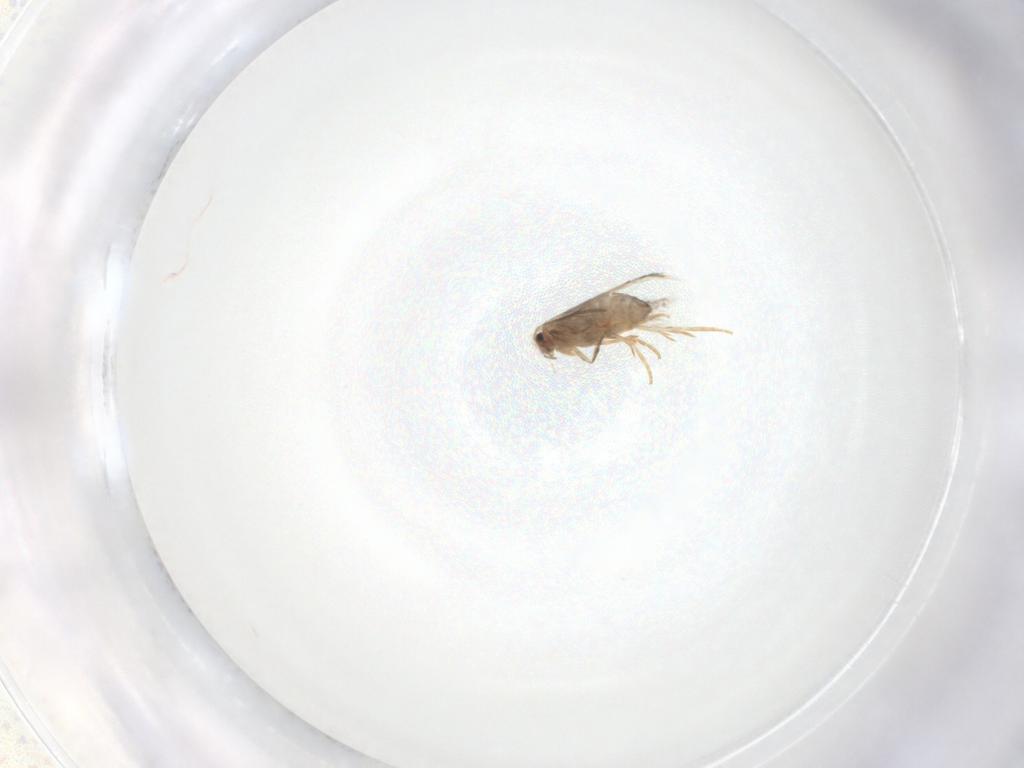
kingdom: Animalia
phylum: Arthropoda
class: Insecta
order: Lepidoptera
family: Nepticulidae
